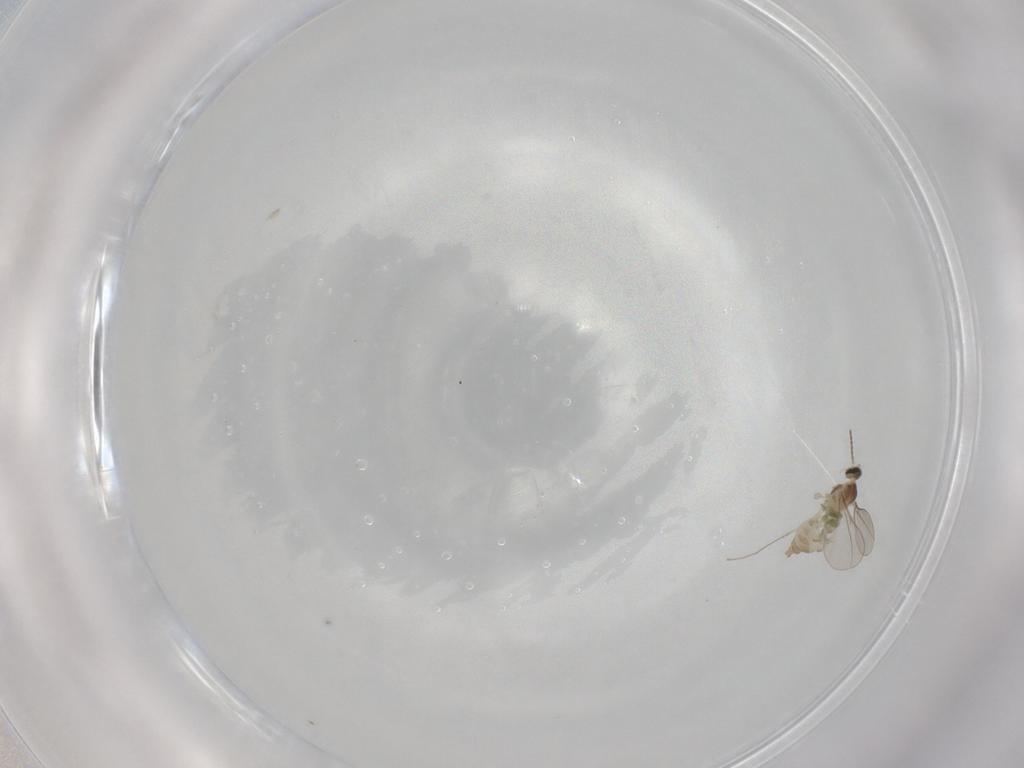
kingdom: Animalia
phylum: Arthropoda
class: Insecta
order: Diptera
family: Cecidomyiidae
